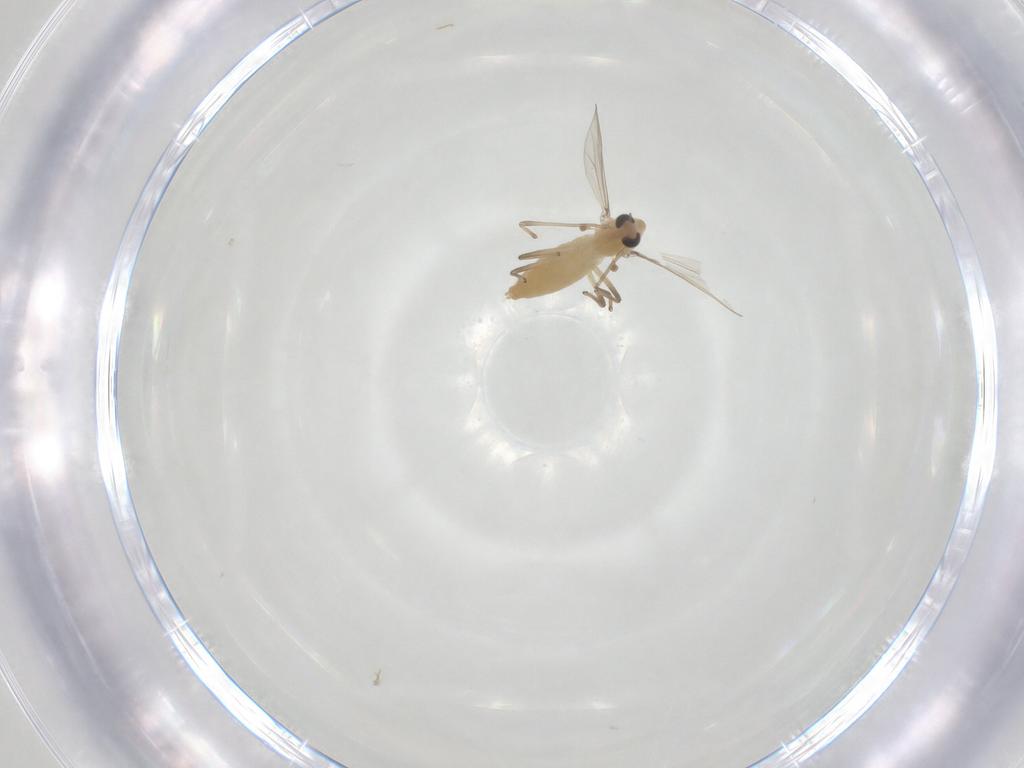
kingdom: Animalia
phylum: Arthropoda
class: Insecta
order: Diptera
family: Chironomidae
